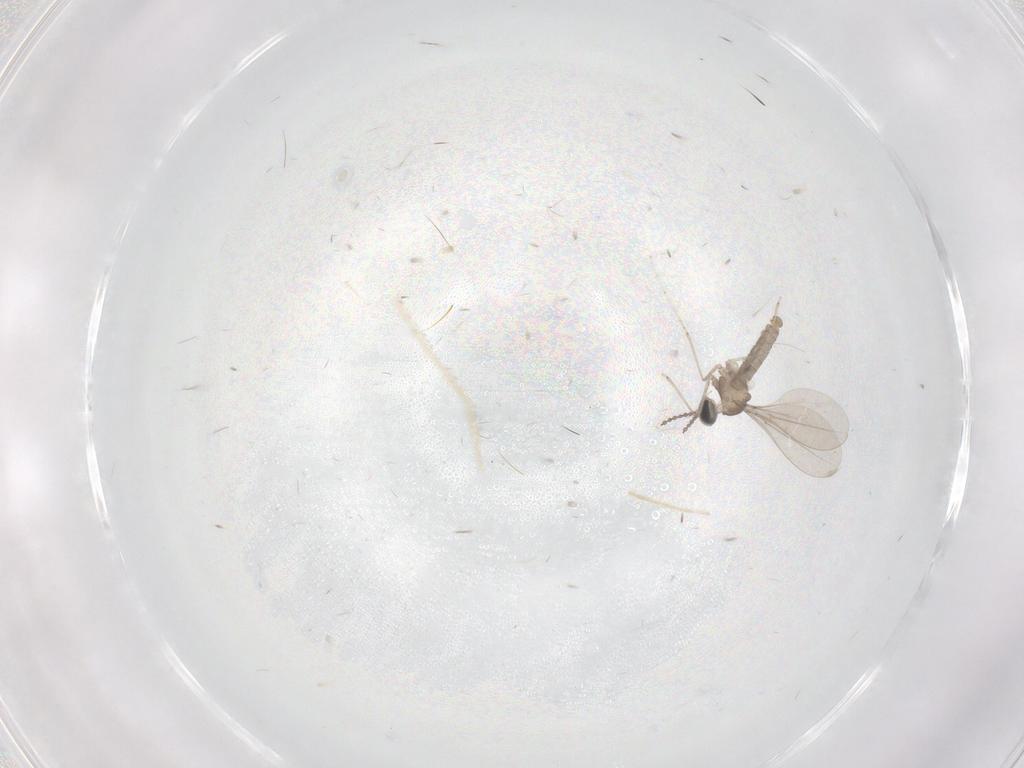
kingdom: Animalia
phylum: Arthropoda
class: Insecta
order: Diptera
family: Cecidomyiidae
